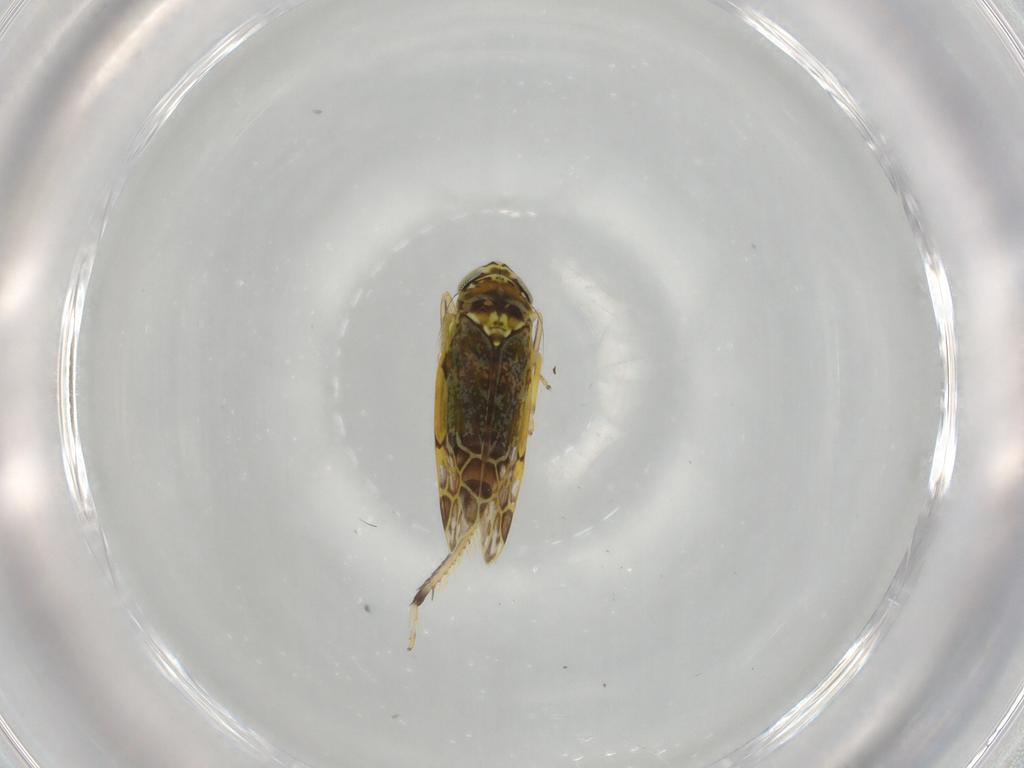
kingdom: Animalia
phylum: Arthropoda
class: Insecta
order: Hemiptera
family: Cicadellidae
